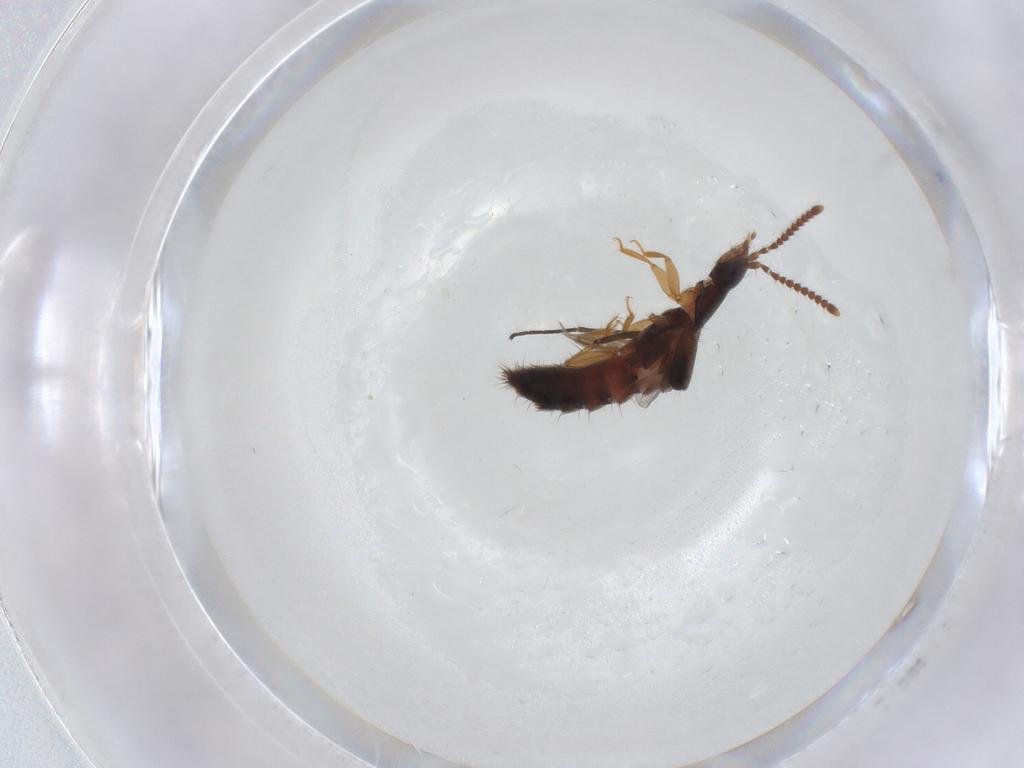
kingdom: Animalia
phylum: Arthropoda
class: Insecta
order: Coleoptera
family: Staphylinidae
